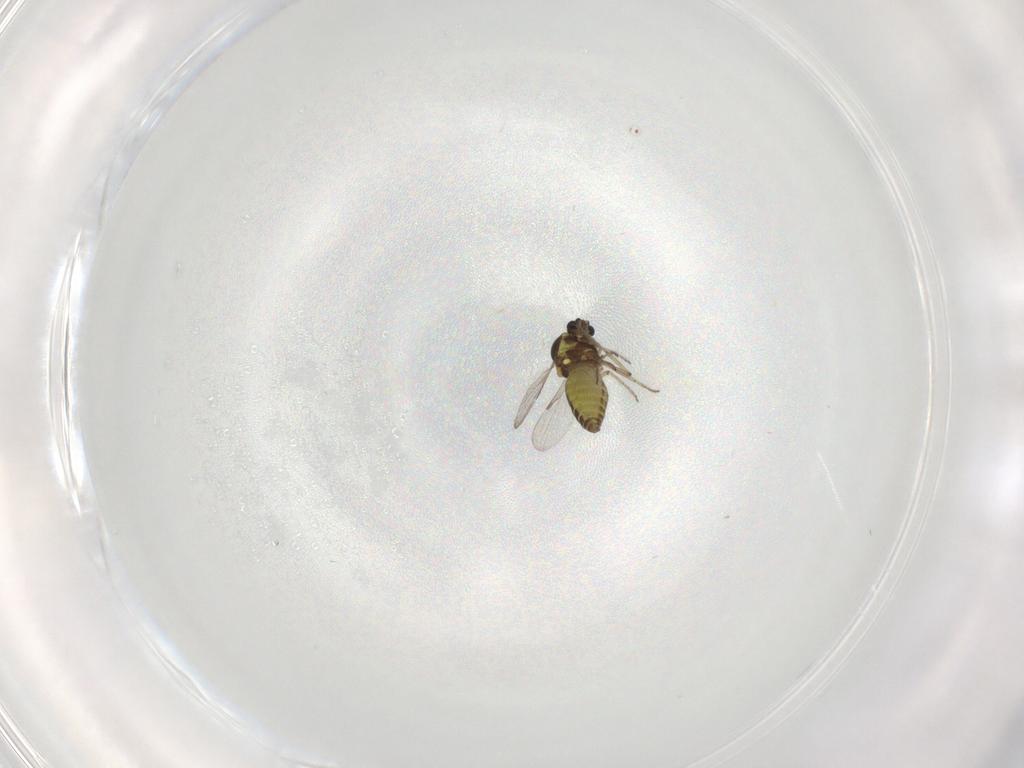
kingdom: Animalia
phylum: Arthropoda
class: Insecta
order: Diptera
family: Ceratopogonidae
